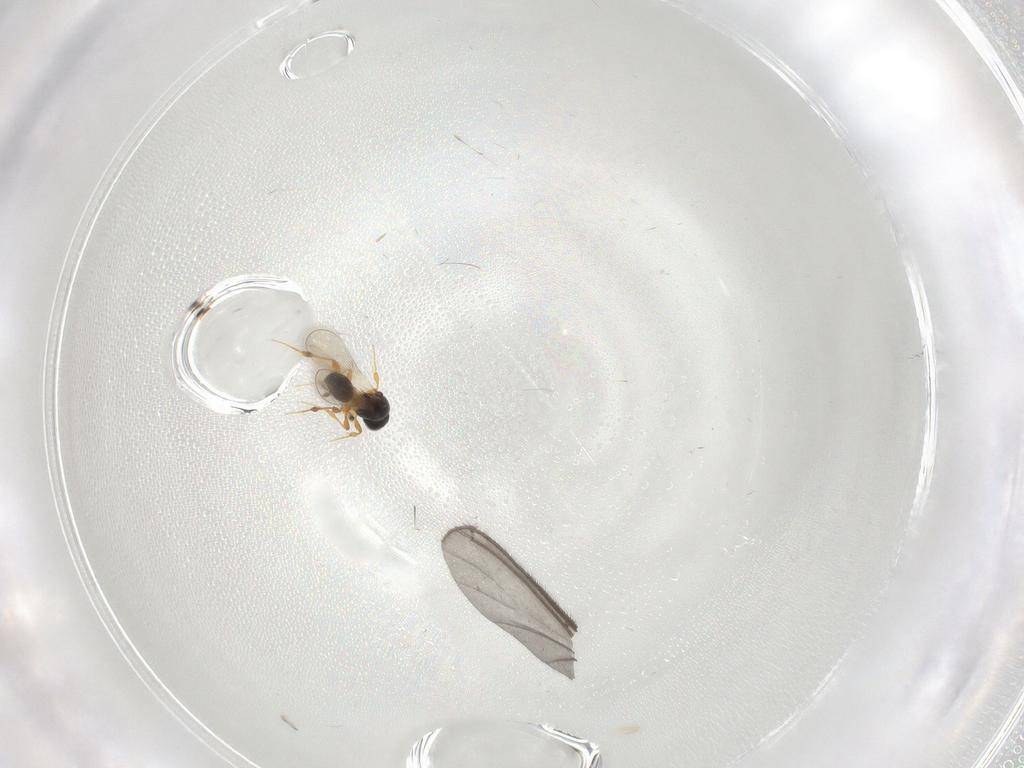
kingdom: Animalia
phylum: Arthropoda
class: Insecta
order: Hymenoptera
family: Platygastridae
